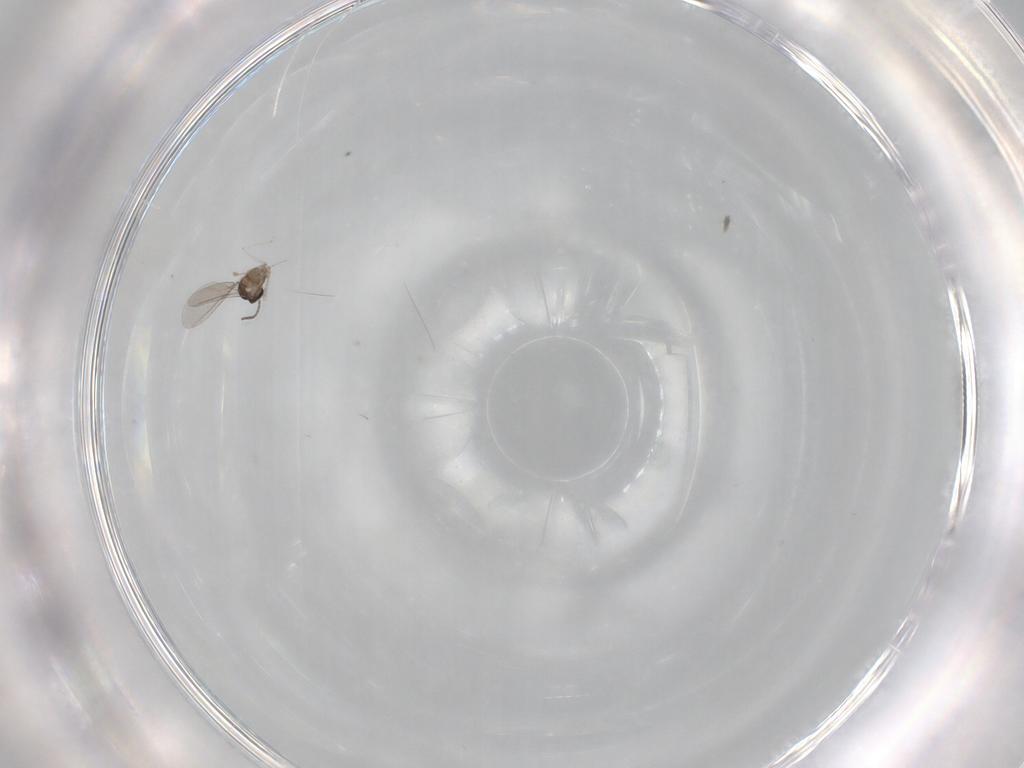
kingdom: Animalia
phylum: Arthropoda
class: Insecta
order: Diptera
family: Cecidomyiidae
